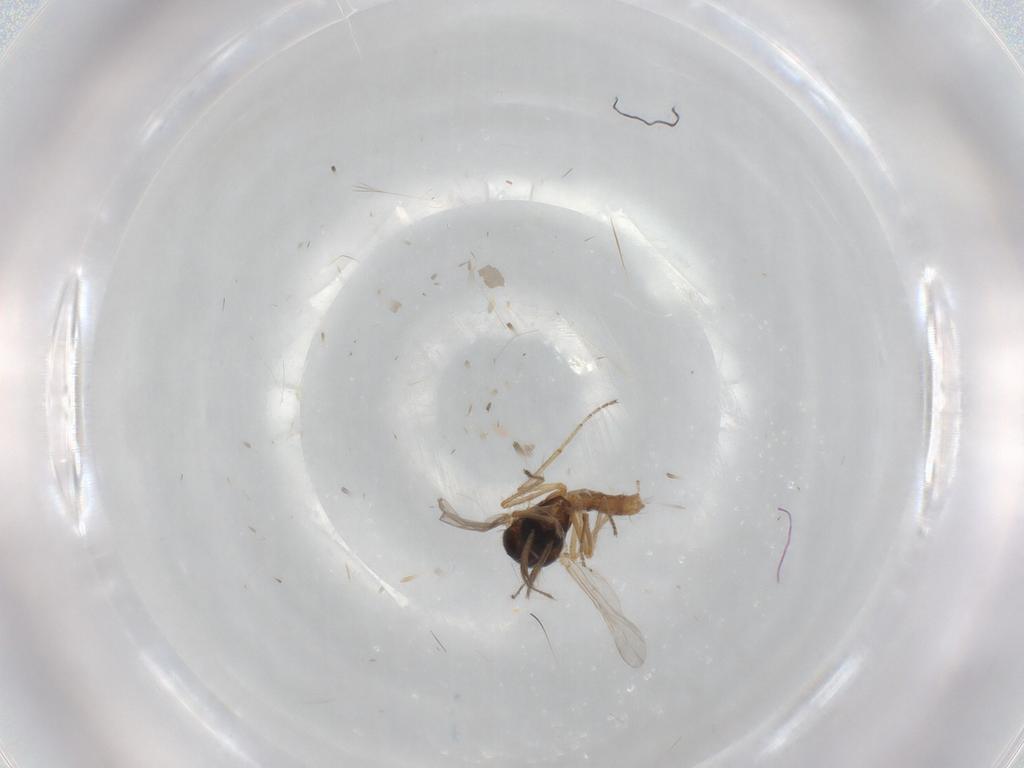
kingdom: Animalia
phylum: Arthropoda
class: Insecta
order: Diptera
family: Ceratopogonidae
